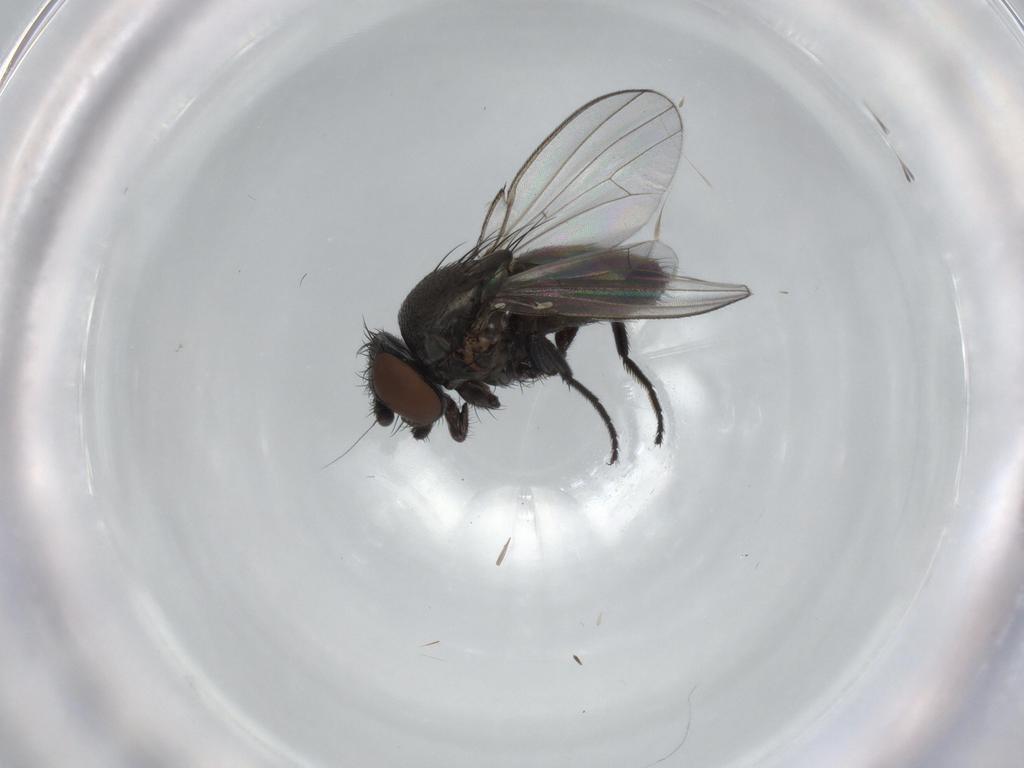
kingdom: Animalia
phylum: Arthropoda
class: Insecta
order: Diptera
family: Milichiidae
